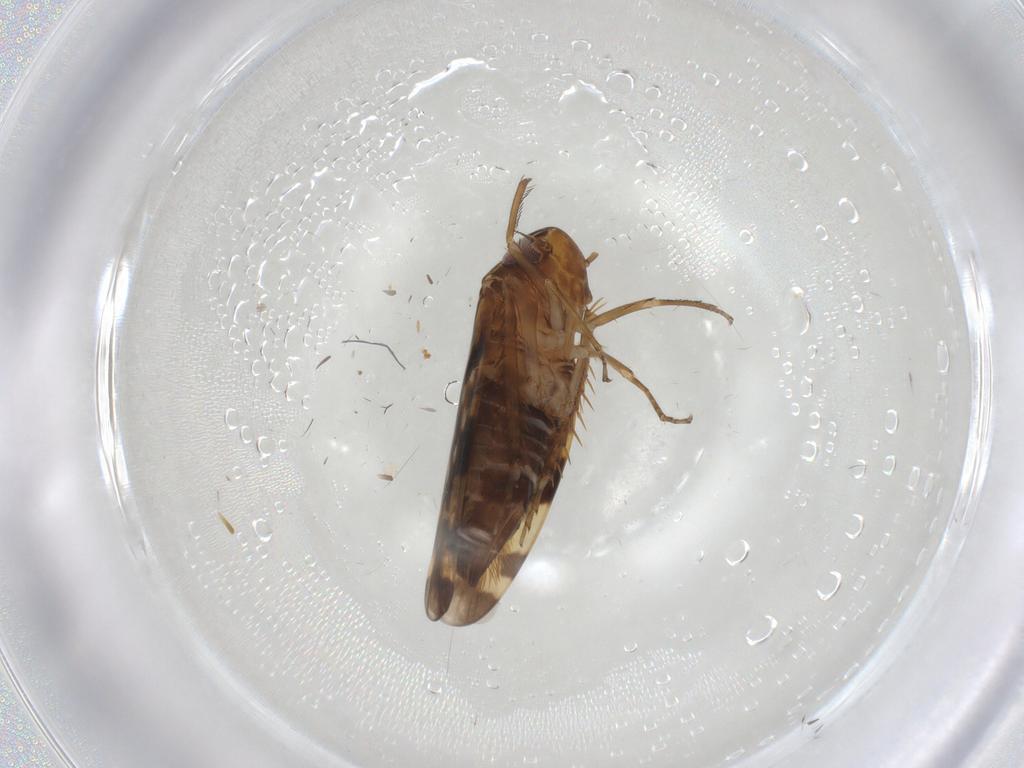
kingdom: Animalia
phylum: Arthropoda
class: Insecta
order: Hemiptera
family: Cicadellidae
